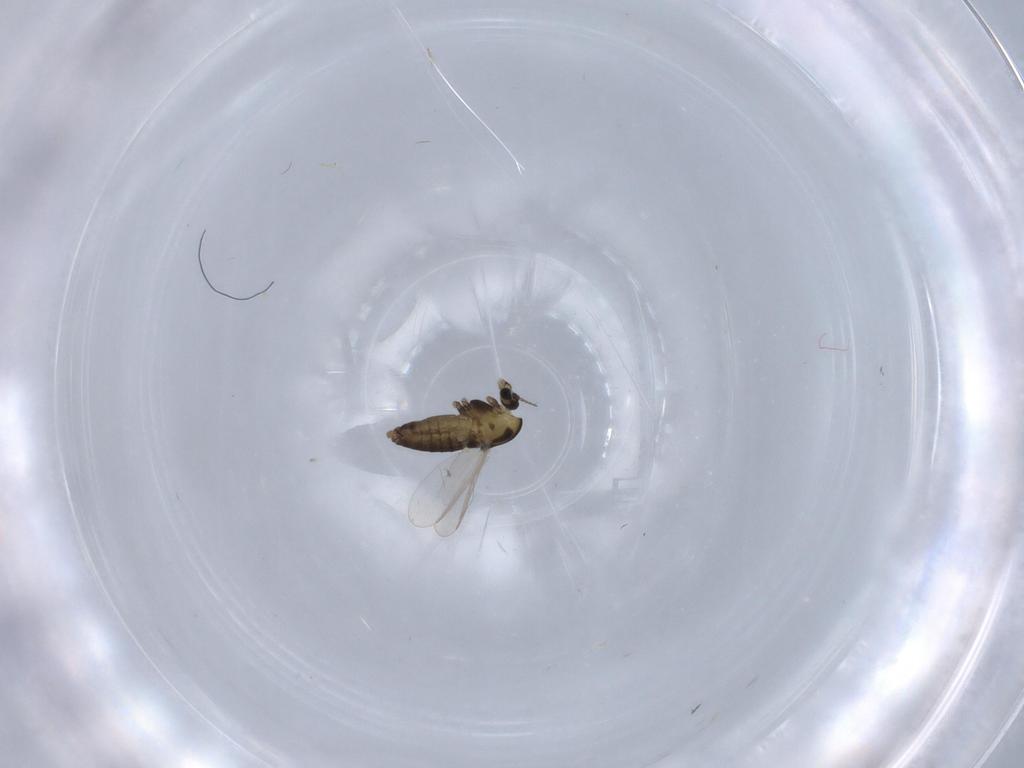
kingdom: Animalia
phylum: Arthropoda
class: Insecta
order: Diptera
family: Chironomidae
